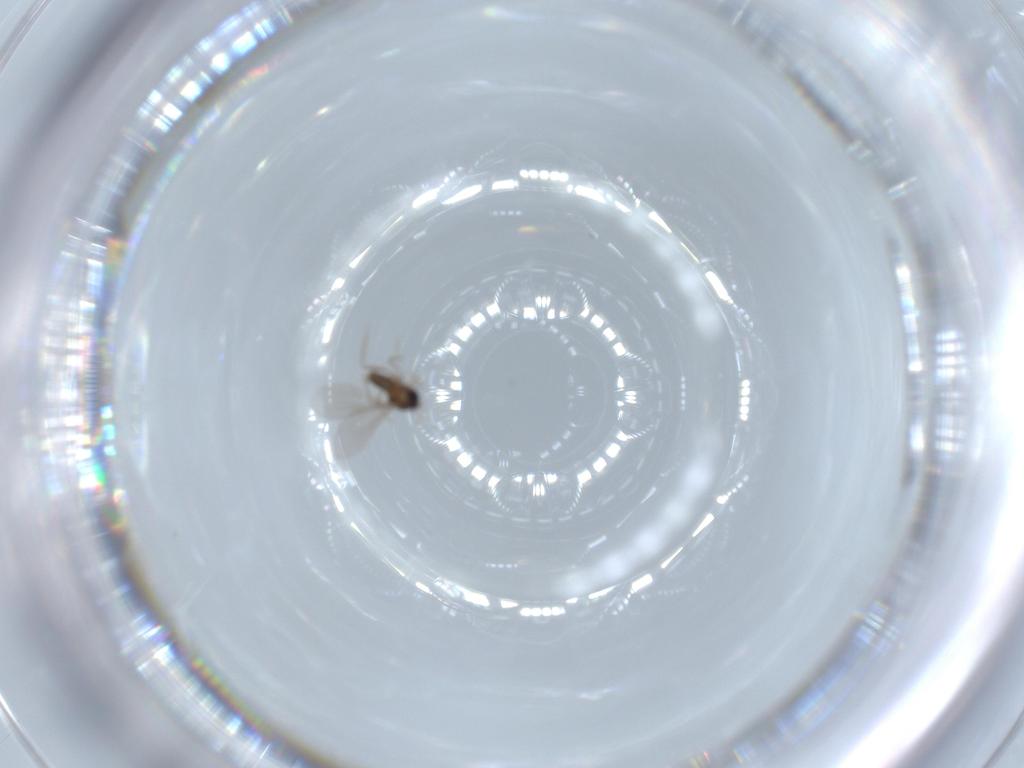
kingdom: Animalia
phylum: Arthropoda
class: Insecta
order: Diptera
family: Cecidomyiidae
